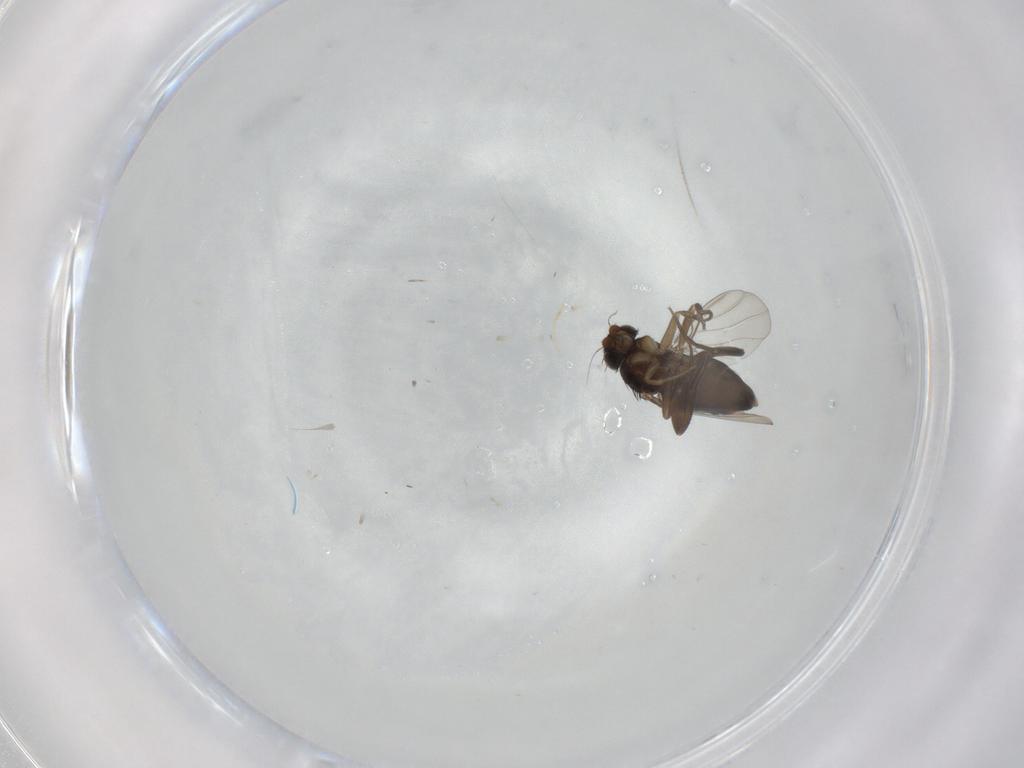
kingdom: Animalia
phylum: Arthropoda
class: Insecta
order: Diptera
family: Phoridae
